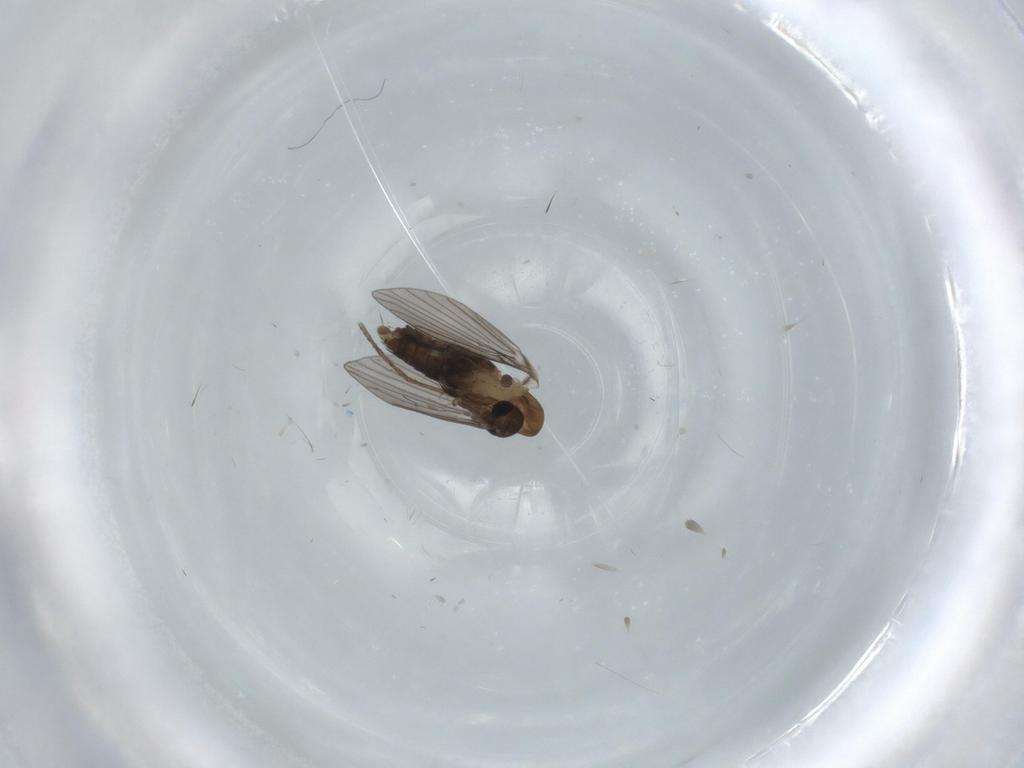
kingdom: Animalia
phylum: Arthropoda
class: Insecta
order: Diptera
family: Psychodidae
